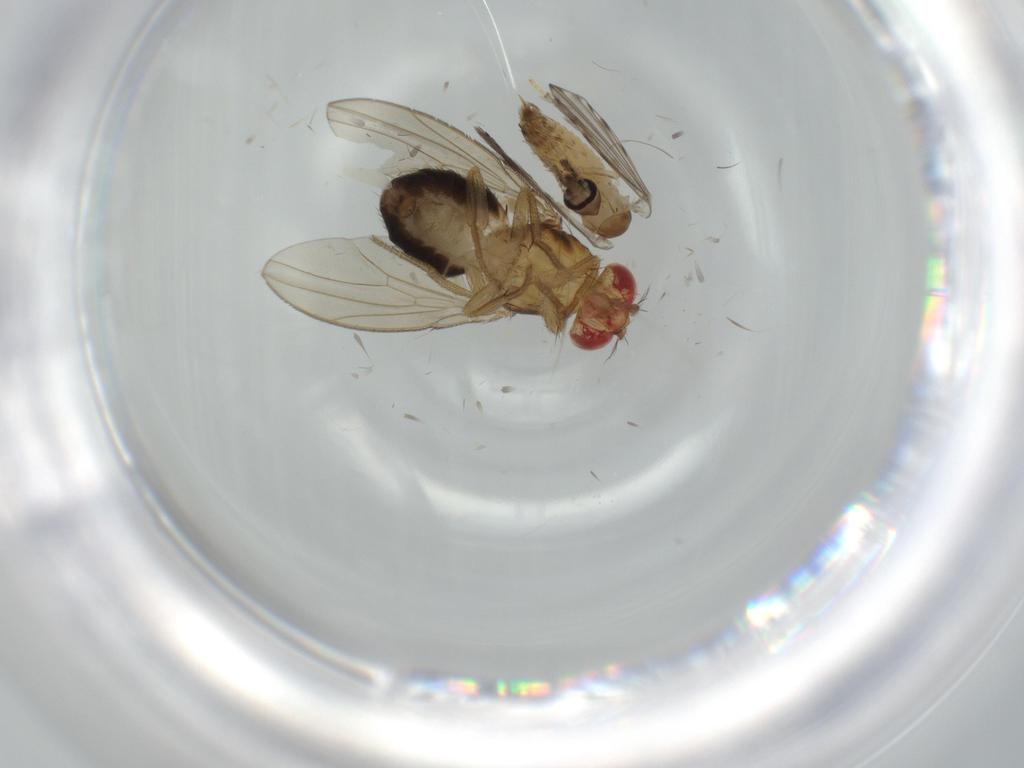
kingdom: Animalia
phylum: Arthropoda
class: Insecta
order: Diptera
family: Psychodidae
